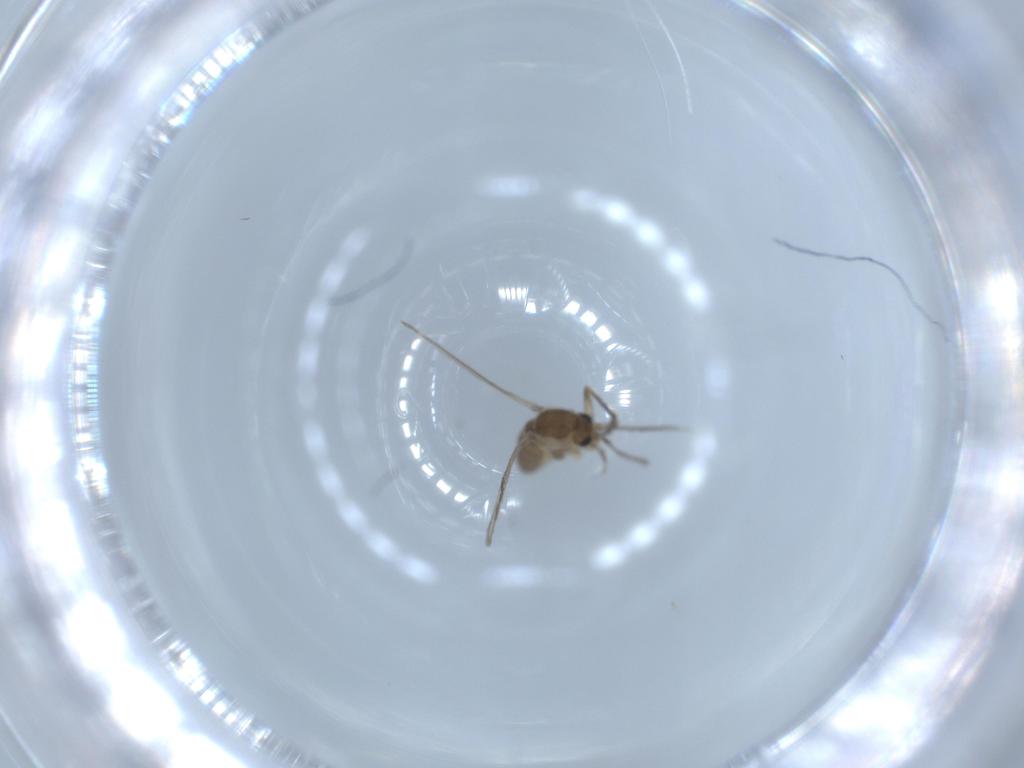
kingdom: Animalia
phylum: Arthropoda
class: Insecta
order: Diptera
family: Psychodidae
